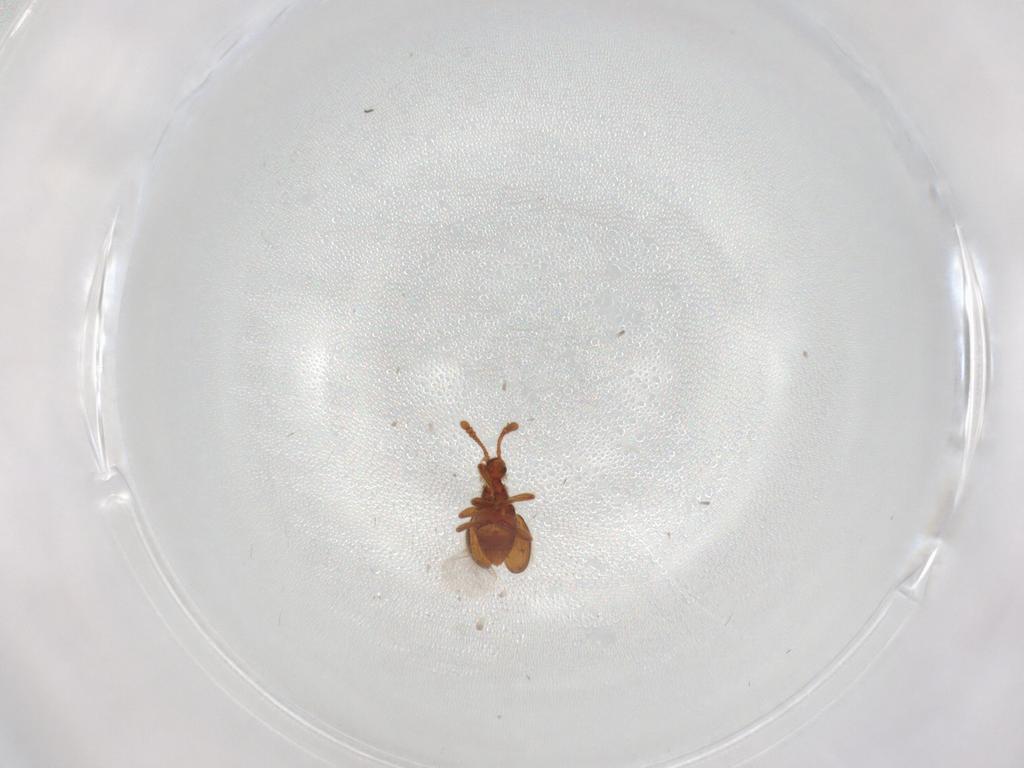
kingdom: Animalia
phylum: Arthropoda
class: Insecta
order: Coleoptera
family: Staphylinidae
